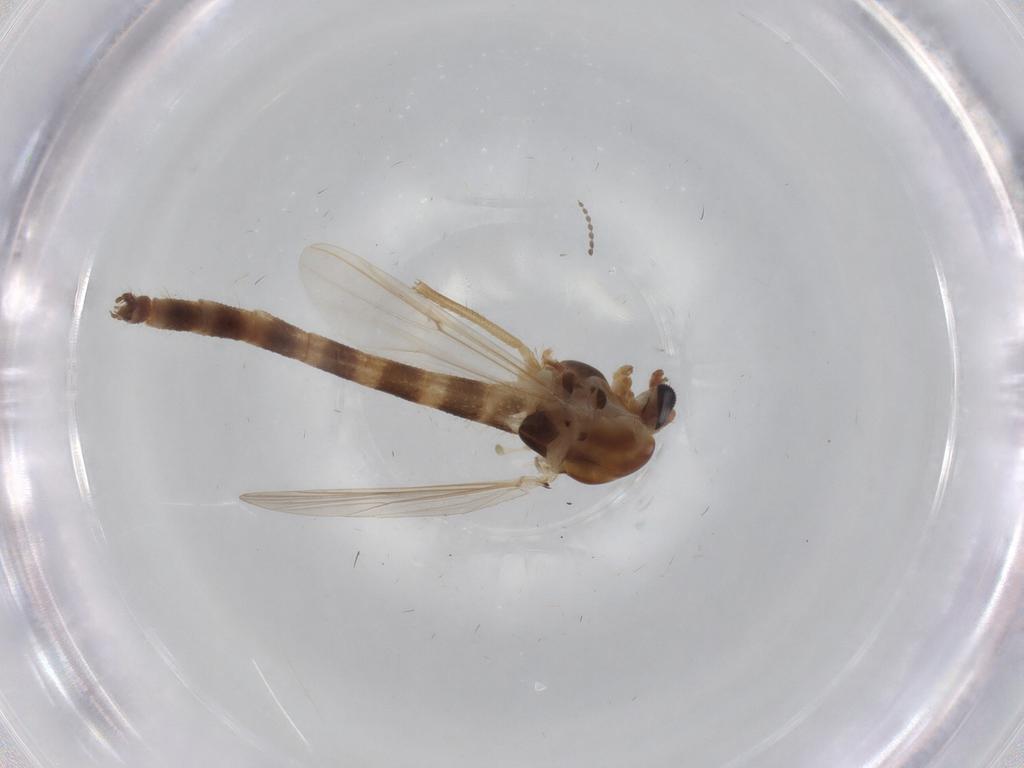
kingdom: Animalia
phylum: Arthropoda
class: Insecta
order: Diptera
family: Chironomidae
